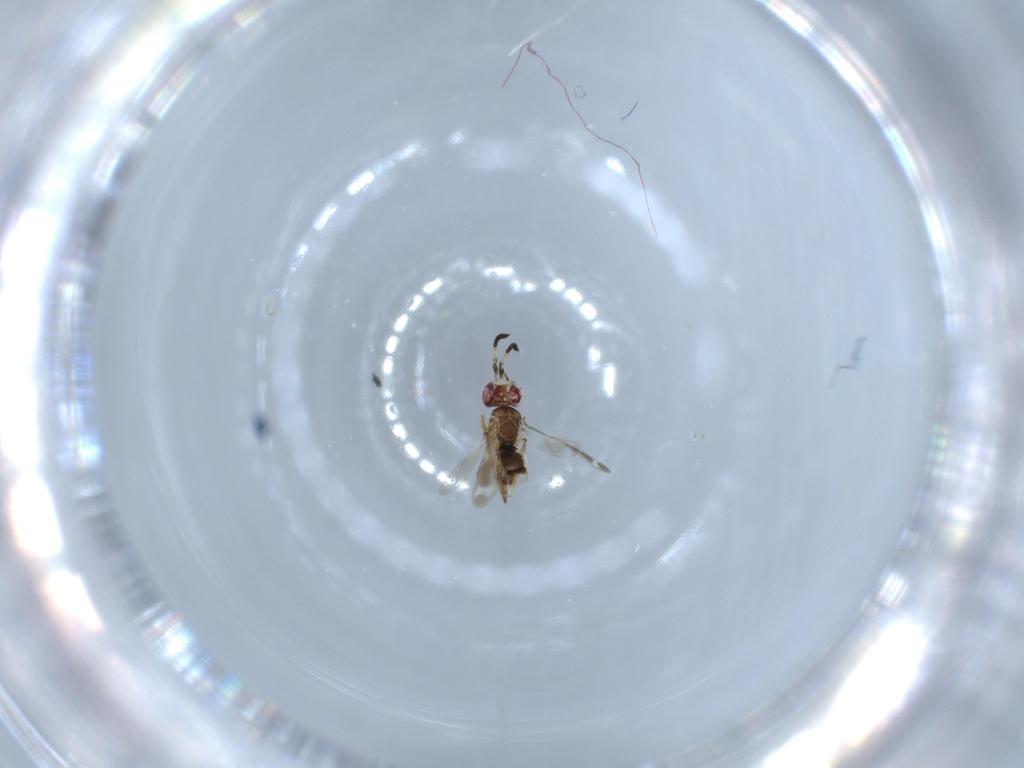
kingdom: Animalia
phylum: Arthropoda
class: Insecta
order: Hymenoptera
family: Formicidae
